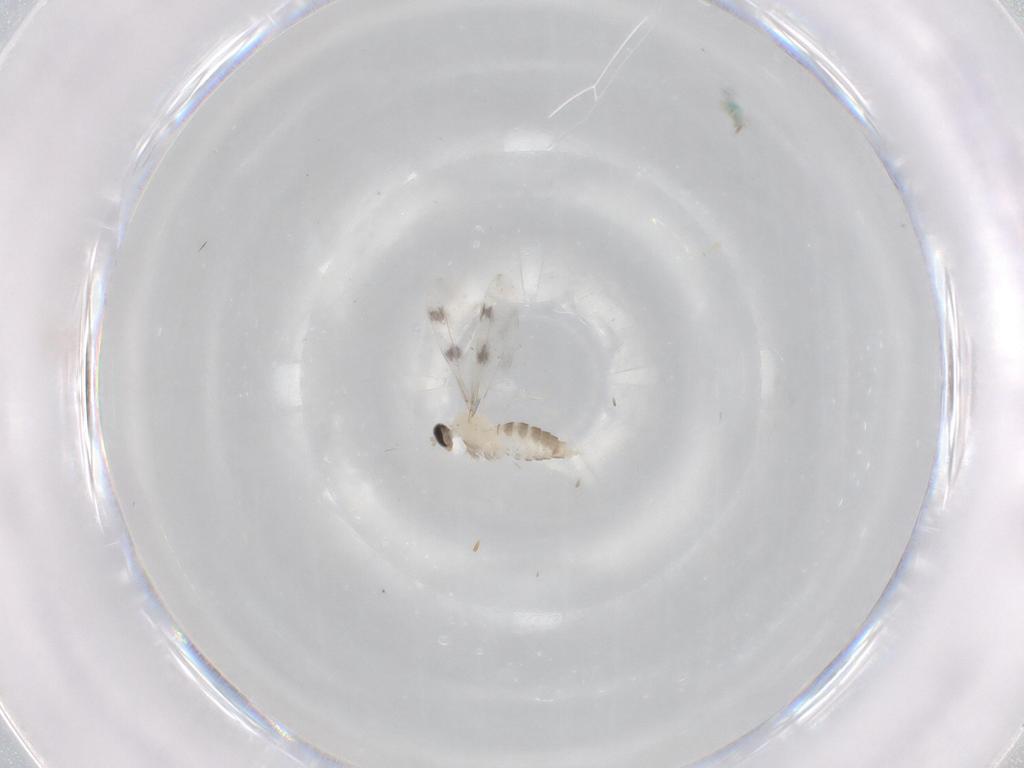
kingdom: Animalia
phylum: Arthropoda
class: Insecta
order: Diptera
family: Cecidomyiidae
